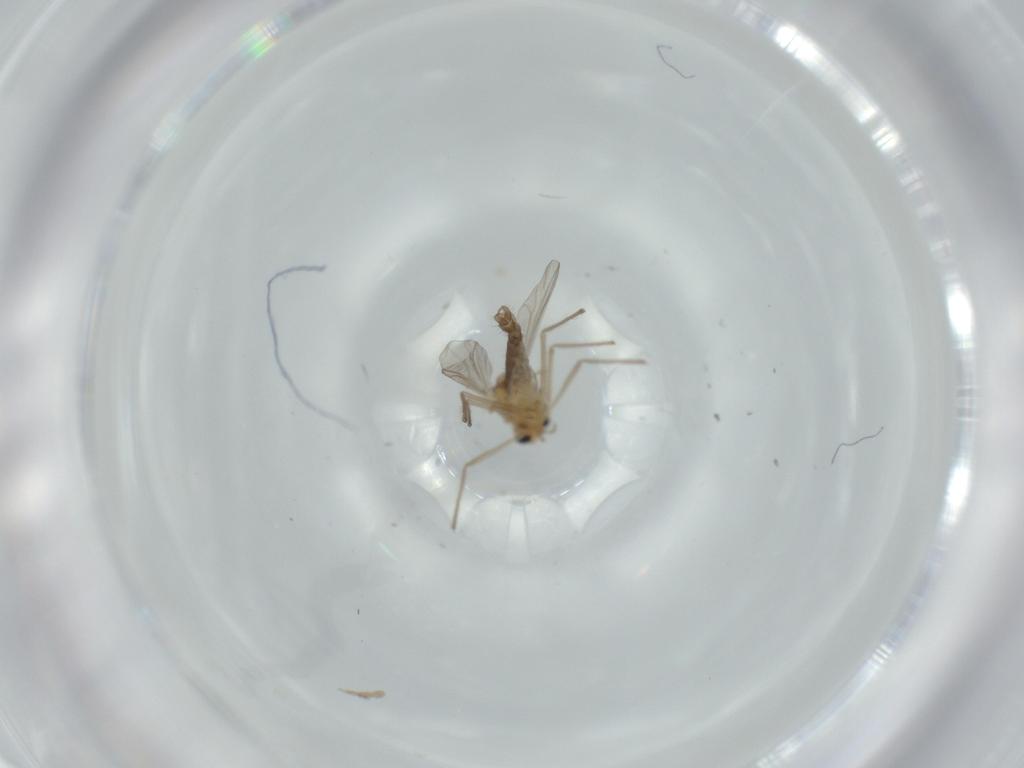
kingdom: Animalia
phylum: Arthropoda
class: Insecta
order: Diptera
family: Chironomidae
